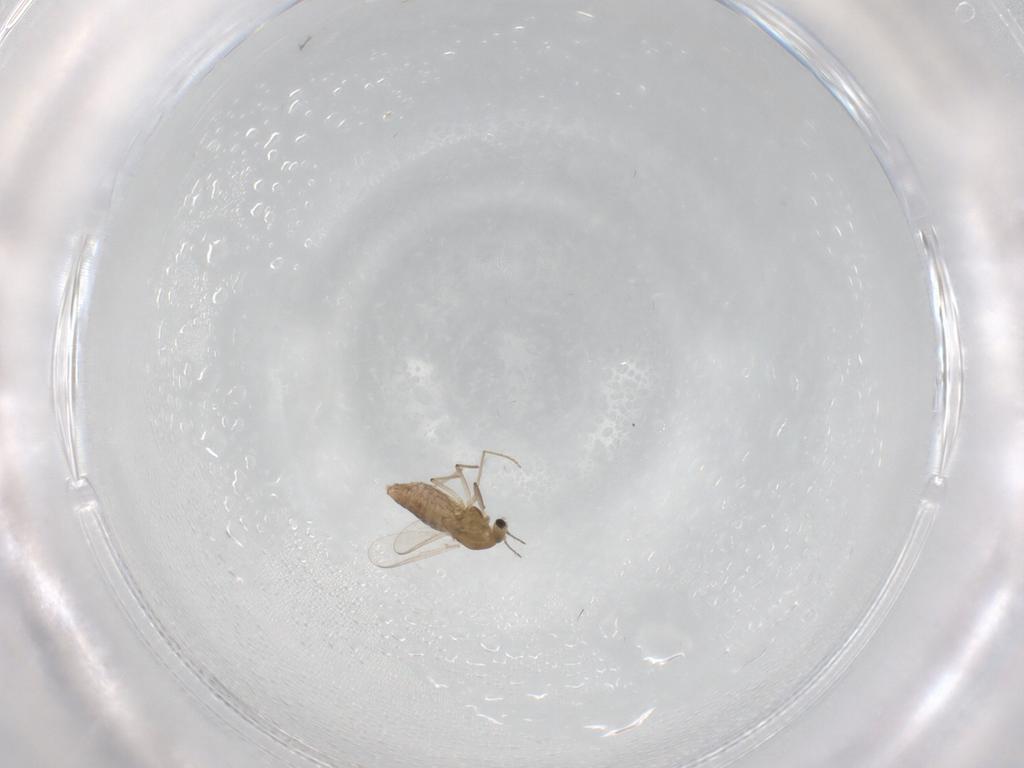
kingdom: Animalia
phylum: Arthropoda
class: Insecta
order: Diptera
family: Chironomidae
